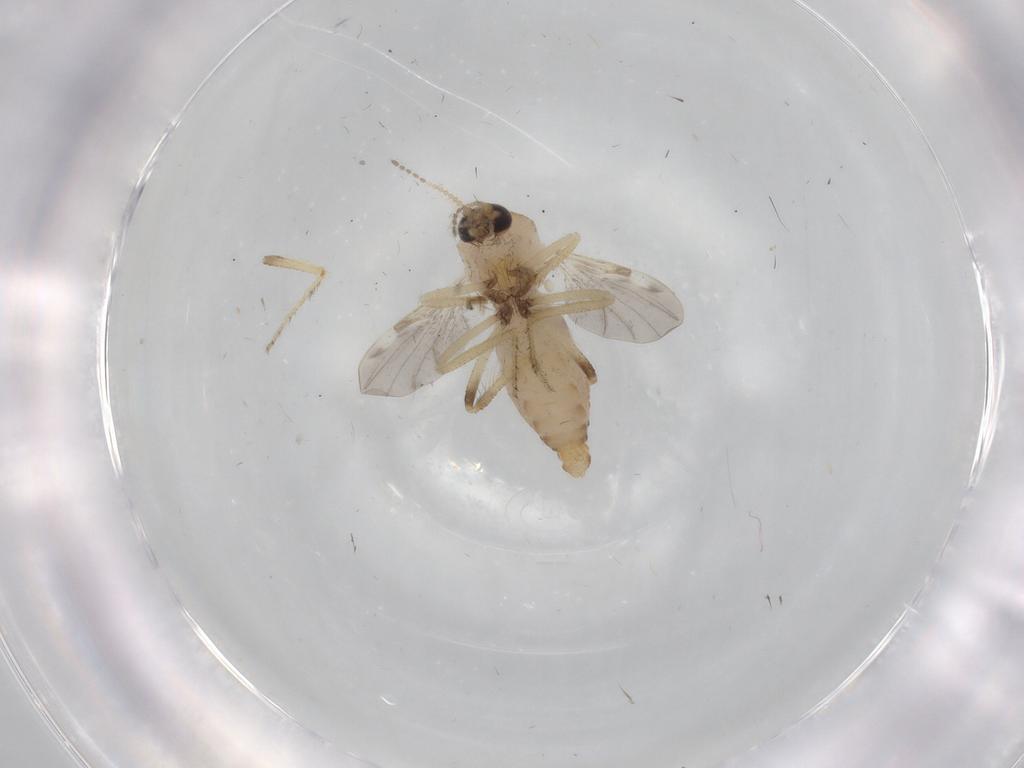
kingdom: Animalia
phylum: Arthropoda
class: Insecta
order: Diptera
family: Ceratopogonidae
